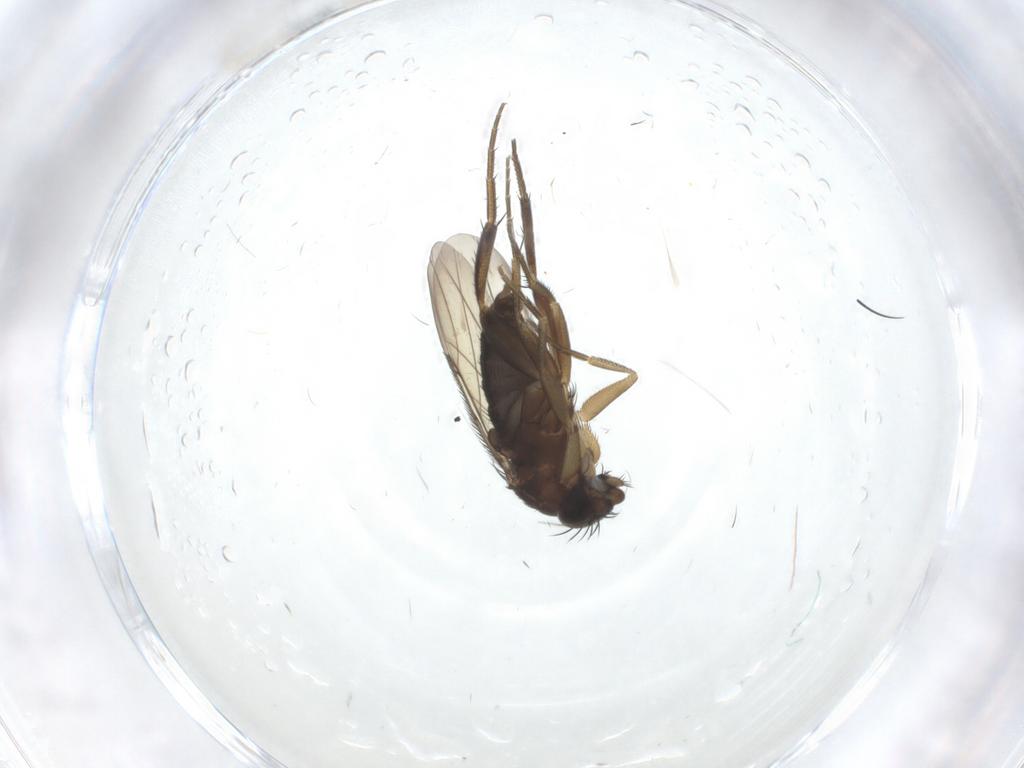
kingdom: Animalia
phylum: Arthropoda
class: Insecta
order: Diptera
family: Phoridae
